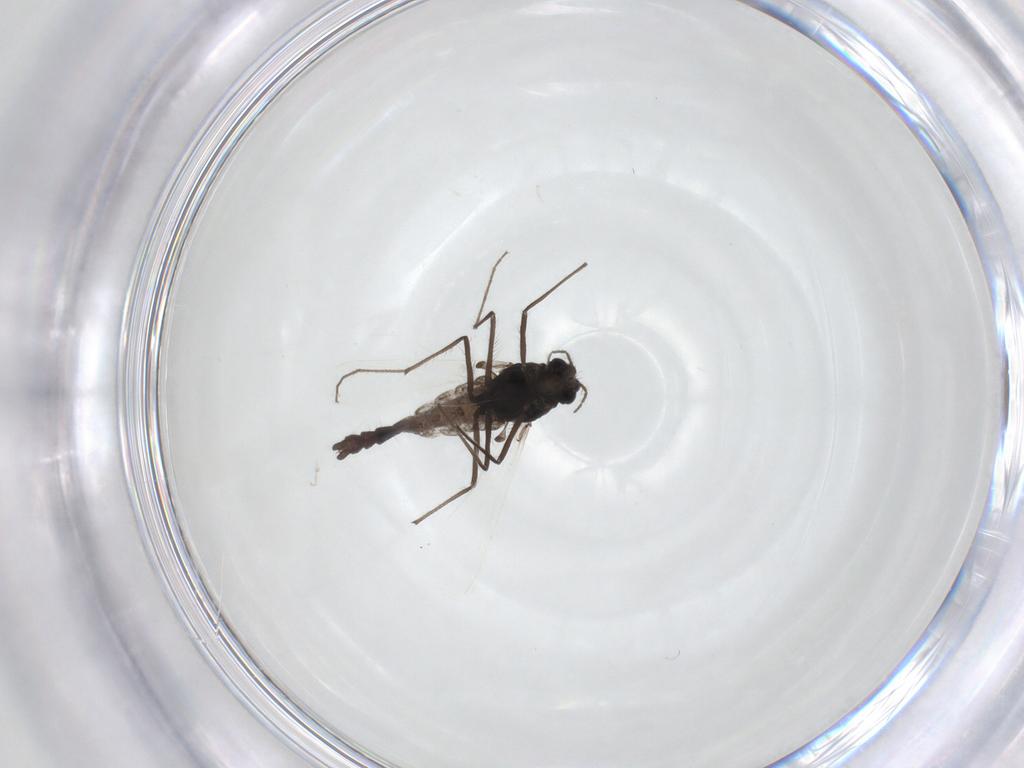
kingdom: Animalia
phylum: Arthropoda
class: Insecta
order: Diptera
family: Chironomidae
